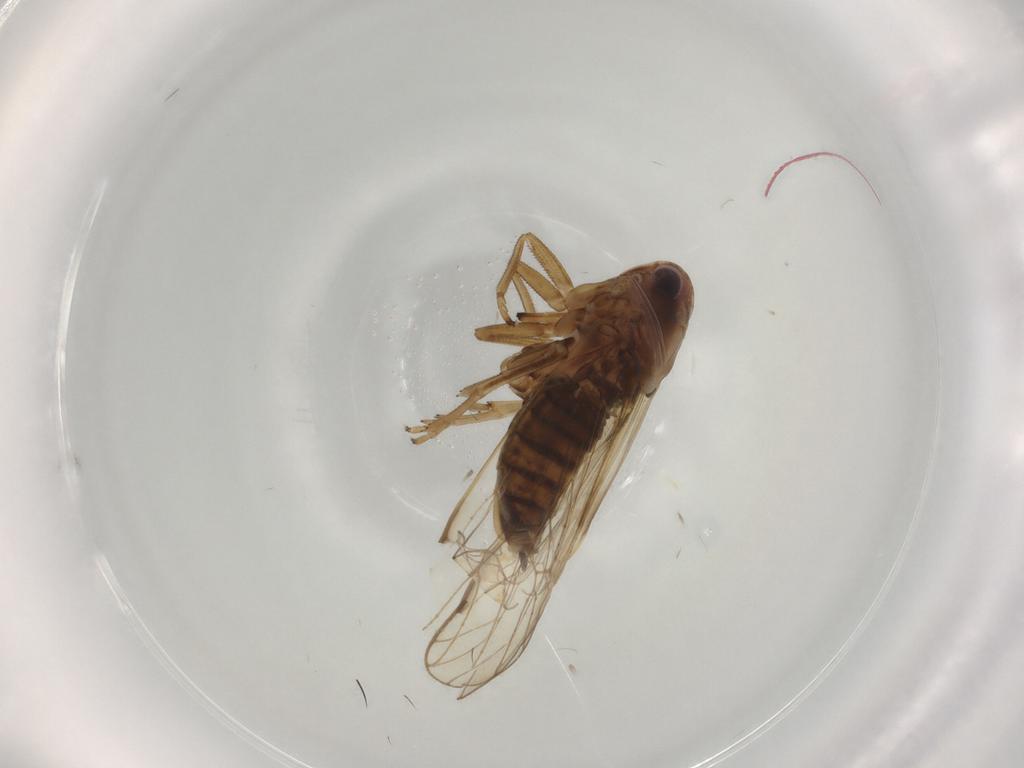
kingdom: Animalia
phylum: Arthropoda
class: Insecta
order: Hemiptera
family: Delphacidae
